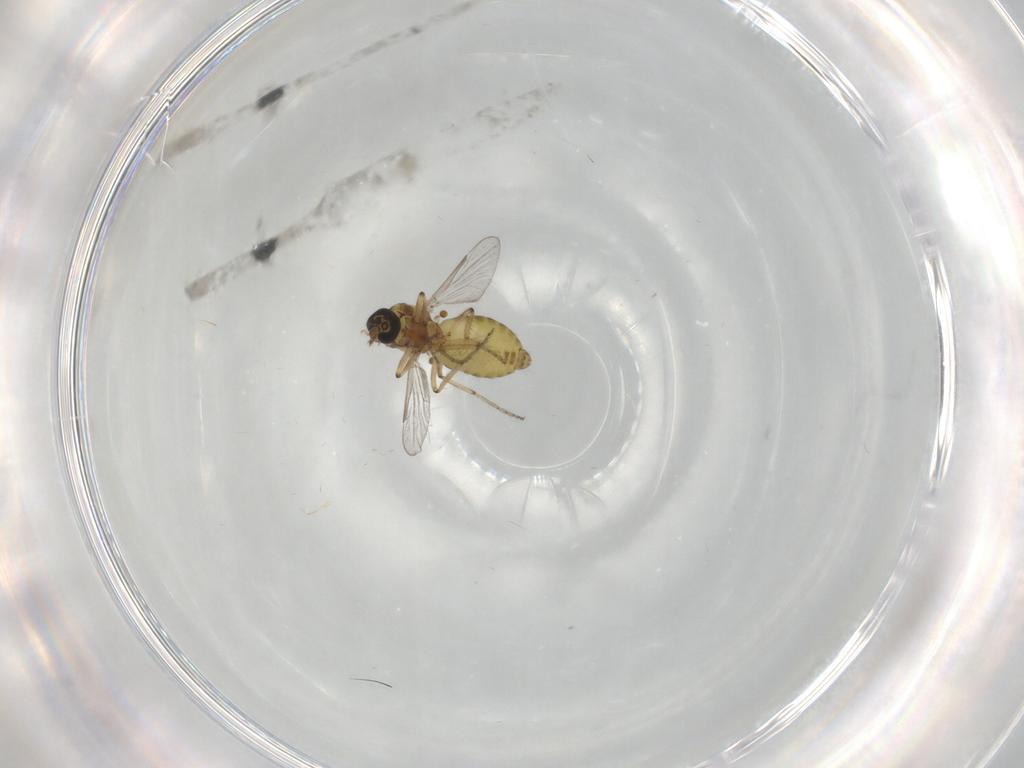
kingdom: Animalia
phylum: Arthropoda
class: Insecta
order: Diptera
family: Ceratopogonidae
